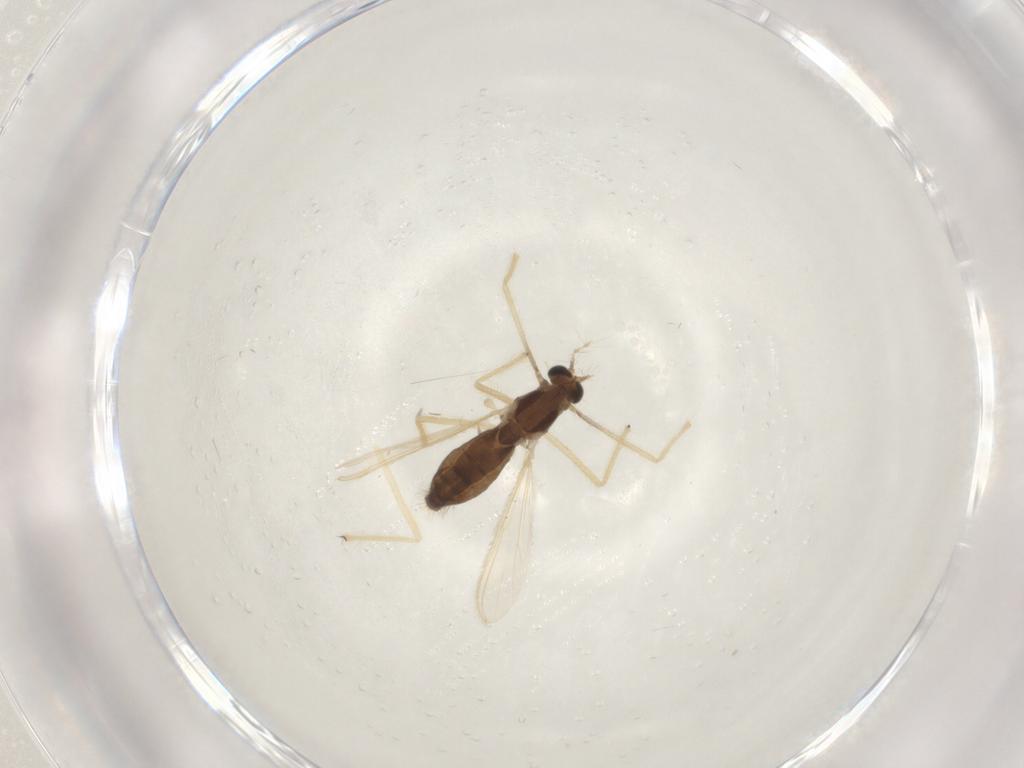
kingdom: Animalia
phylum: Arthropoda
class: Insecta
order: Diptera
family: Chironomidae
